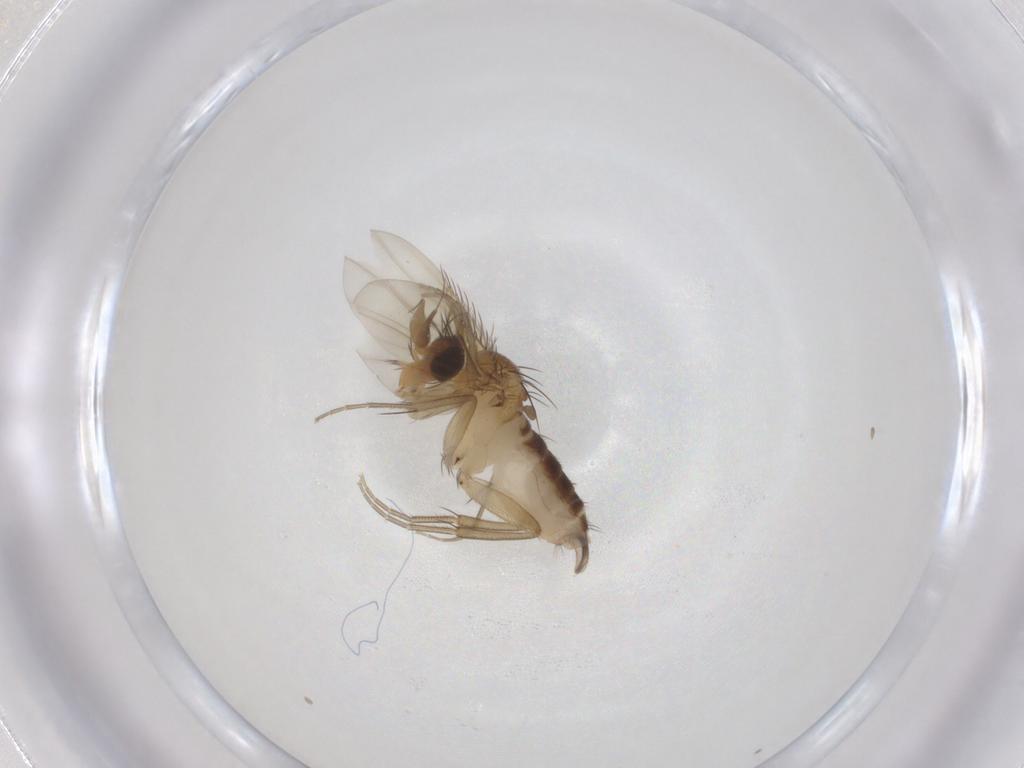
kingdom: Animalia
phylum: Arthropoda
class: Insecta
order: Diptera
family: Phoridae
